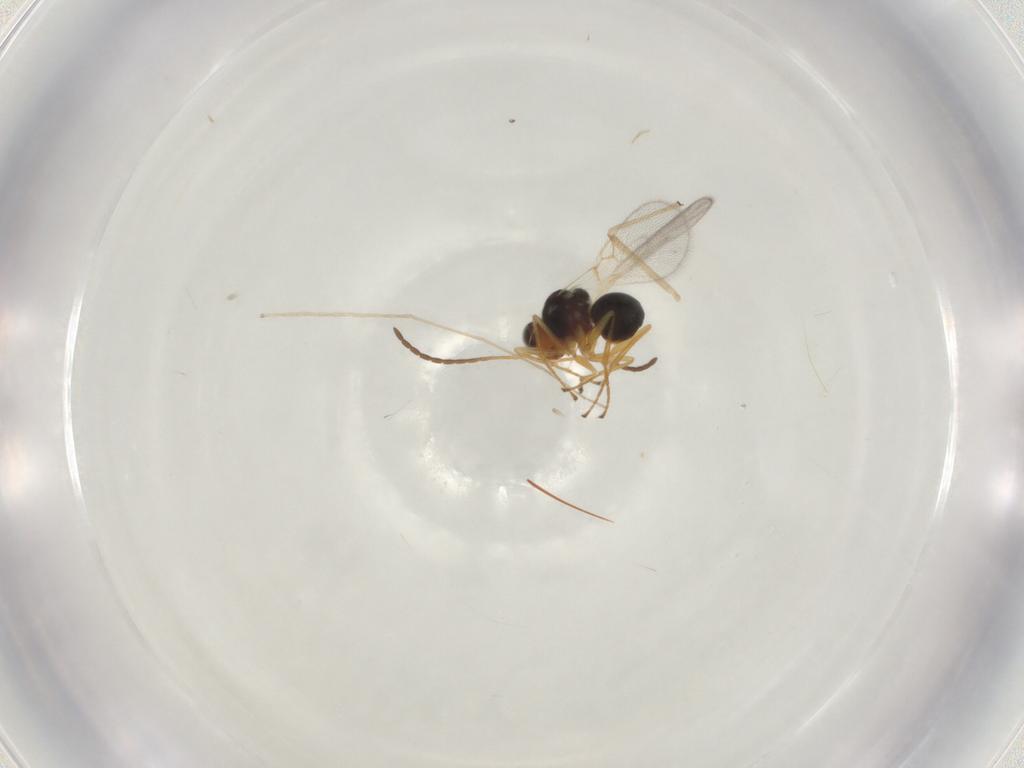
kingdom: Animalia
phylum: Arthropoda
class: Insecta
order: Hymenoptera
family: Figitidae
